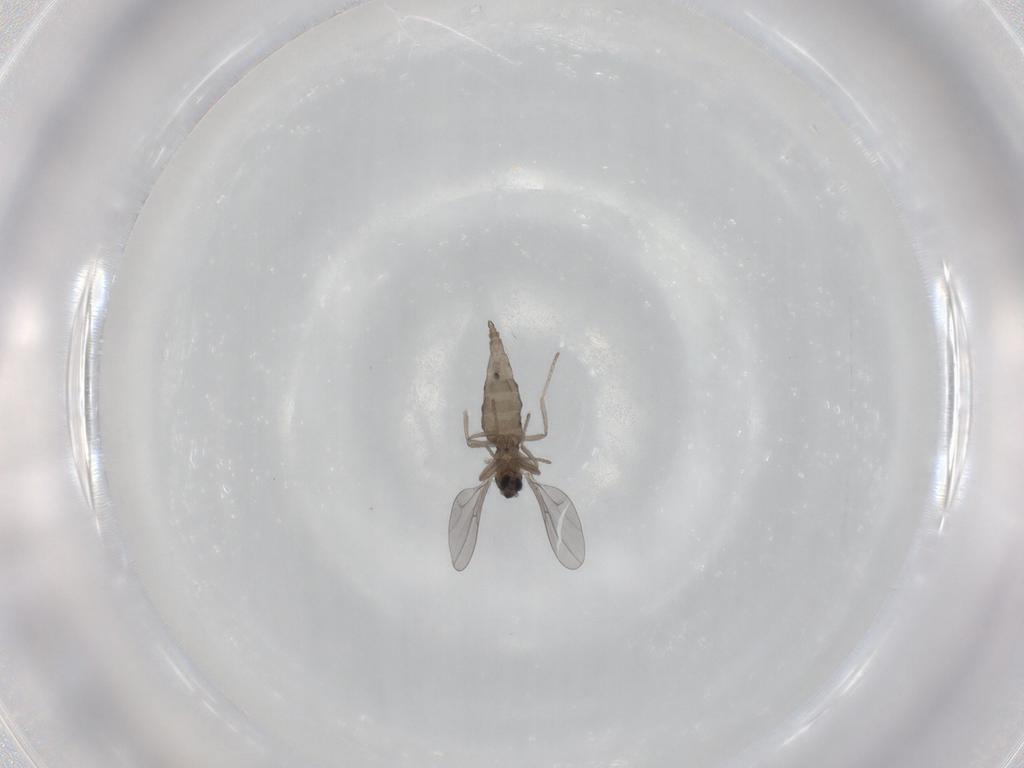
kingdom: Animalia
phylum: Arthropoda
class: Insecta
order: Diptera
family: Cecidomyiidae
